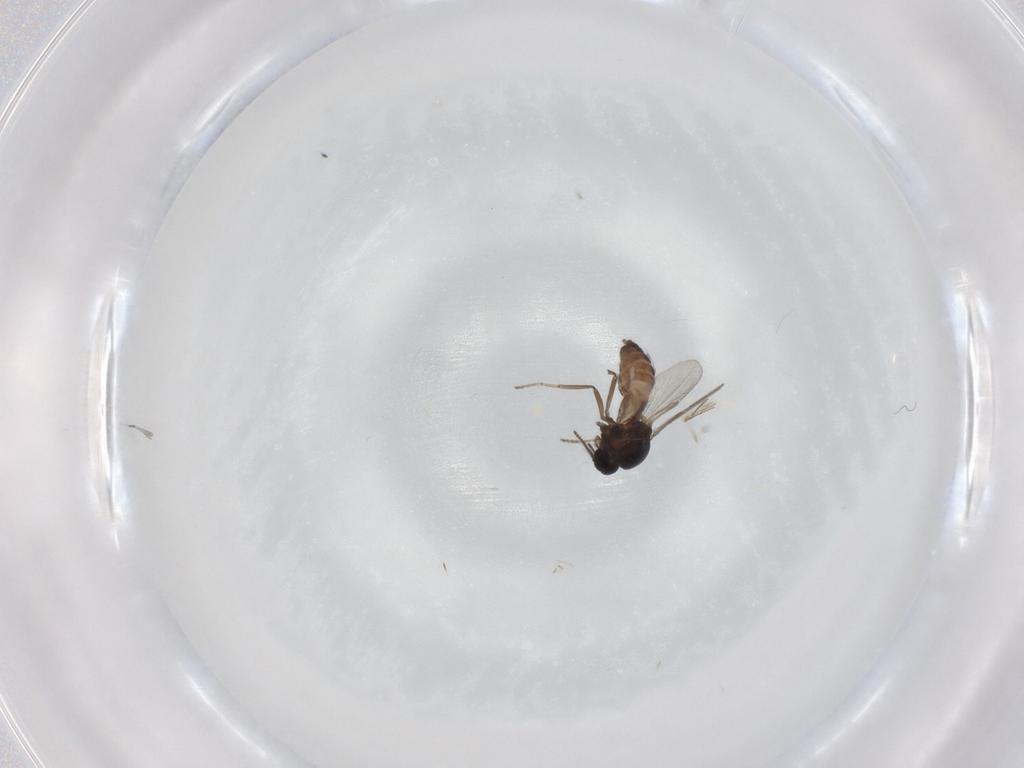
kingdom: Animalia
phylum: Arthropoda
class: Insecta
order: Diptera
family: Ceratopogonidae
